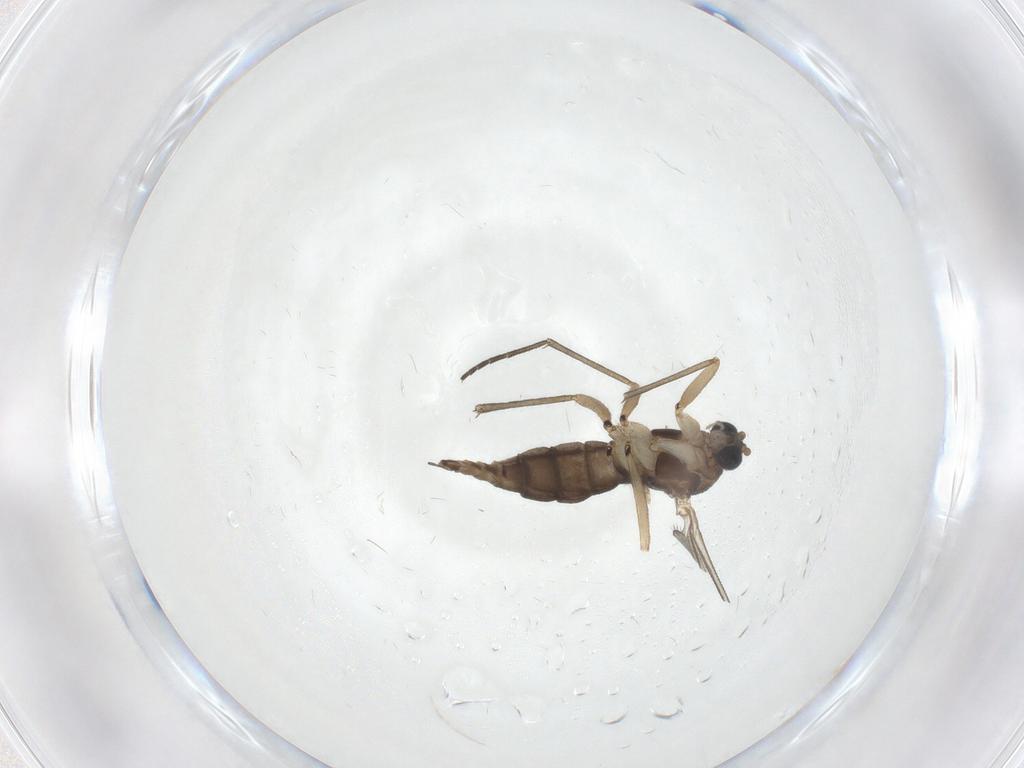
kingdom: Animalia
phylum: Arthropoda
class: Insecta
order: Diptera
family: Sciaridae
